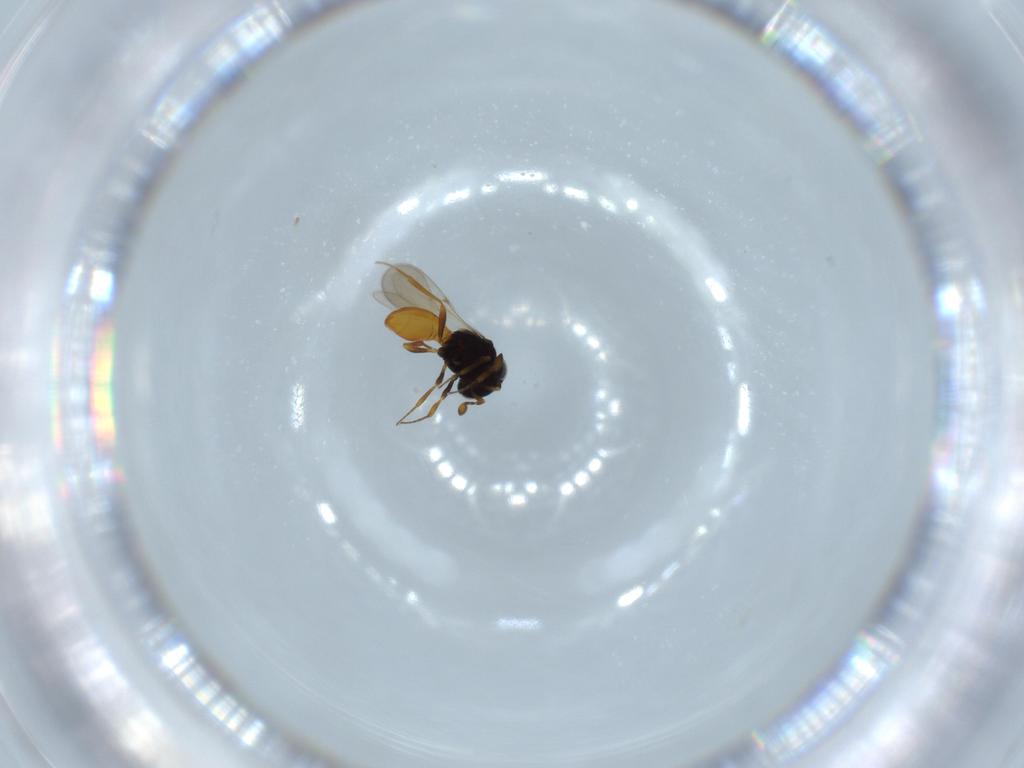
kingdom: Animalia
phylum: Arthropoda
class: Insecta
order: Hymenoptera
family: Scelionidae
